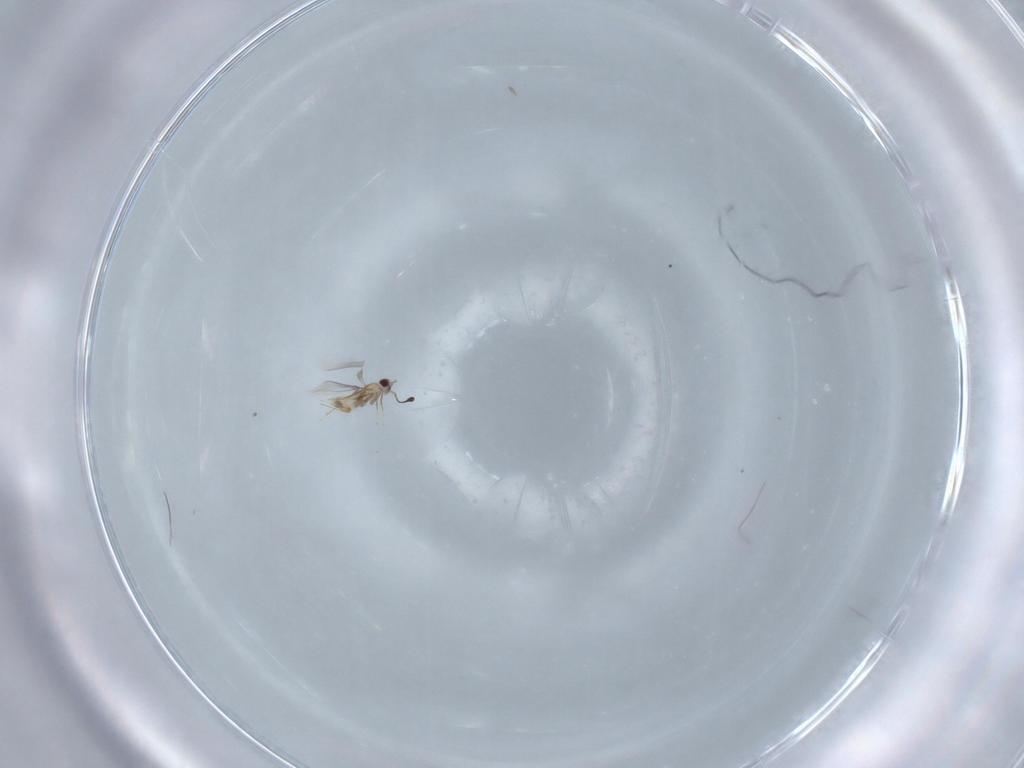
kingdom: Animalia
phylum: Arthropoda
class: Insecta
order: Hymenoptera
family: Mymaridae
